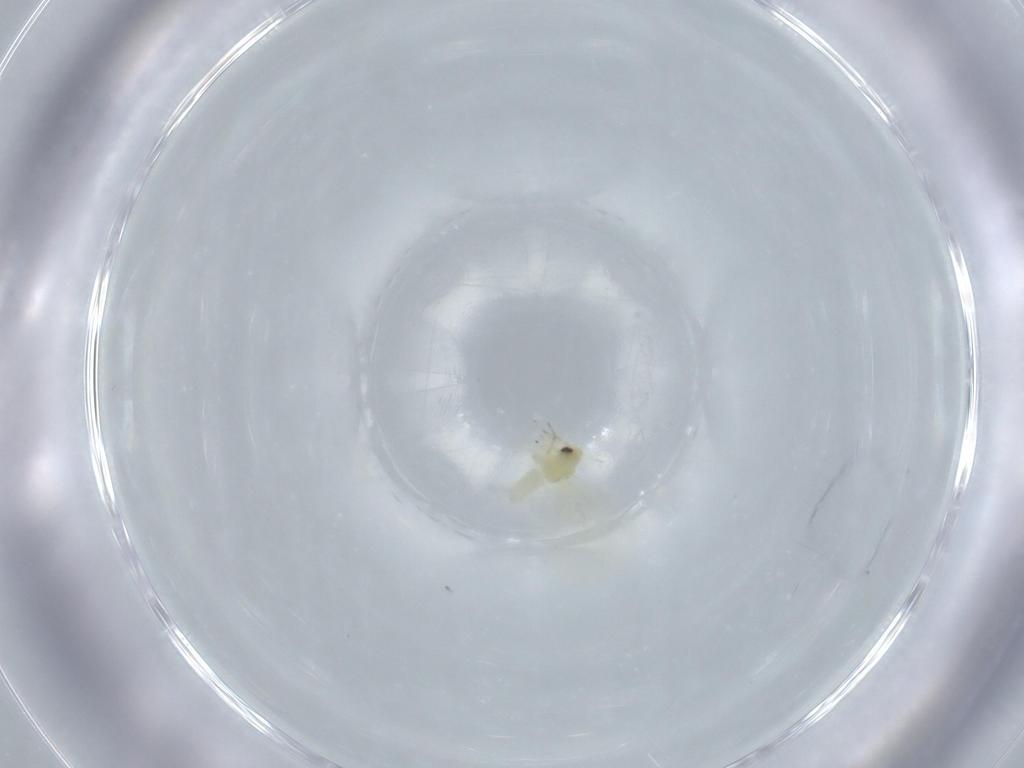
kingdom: Animalia
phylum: Arthropoda
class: Insecta
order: Hemiptera
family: Aleyrodidae
